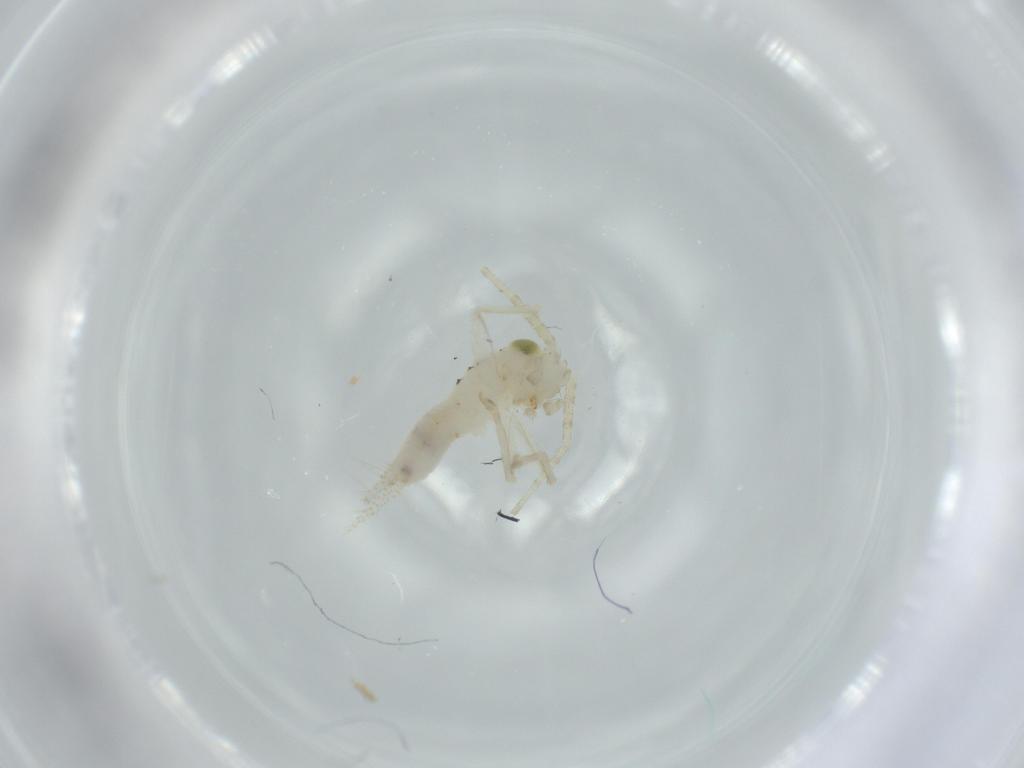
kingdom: Animalia
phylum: Arthropoda
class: Insecta
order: Orthoptera
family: Trigonidiidae
